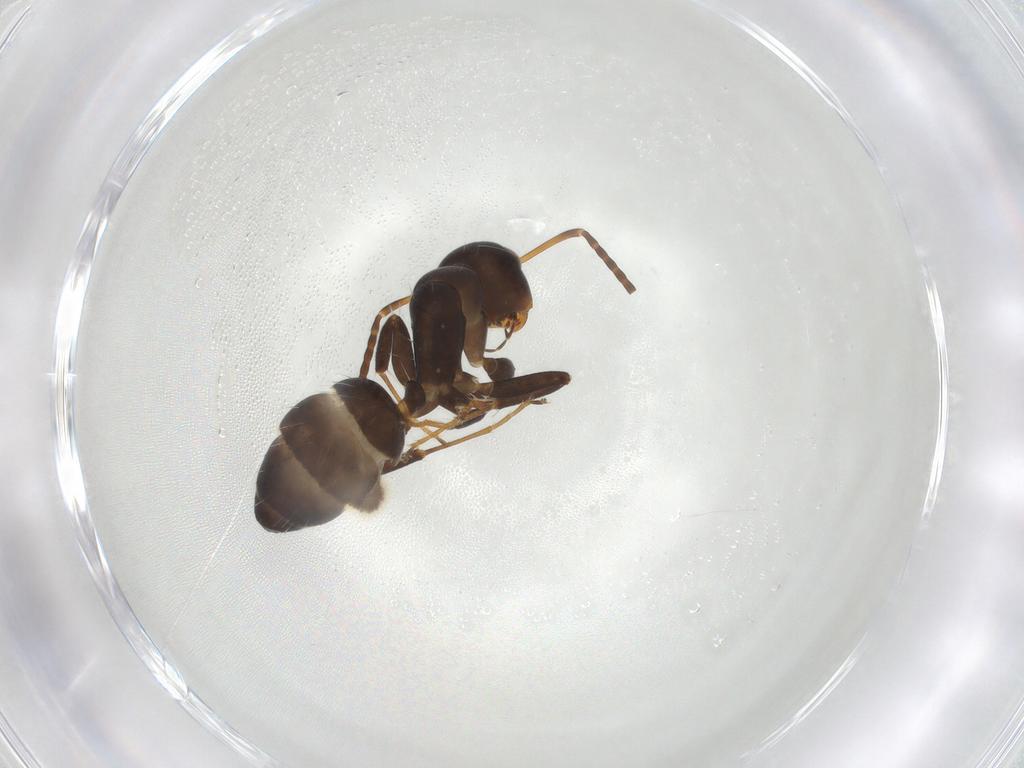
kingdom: Animalia
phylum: Arthropoda
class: Insecta
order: Hymenoptera
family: Formicidae
